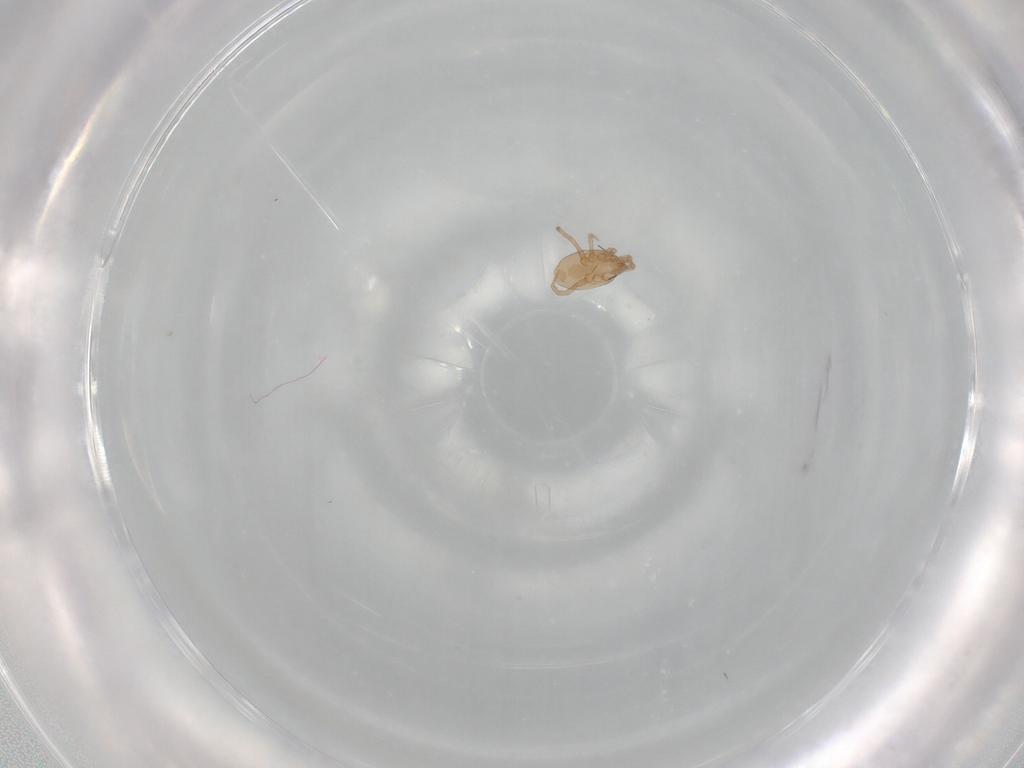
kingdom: Animalia
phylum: Arthropoda
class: Arachnida
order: Mesostigmata
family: Laelapidae
